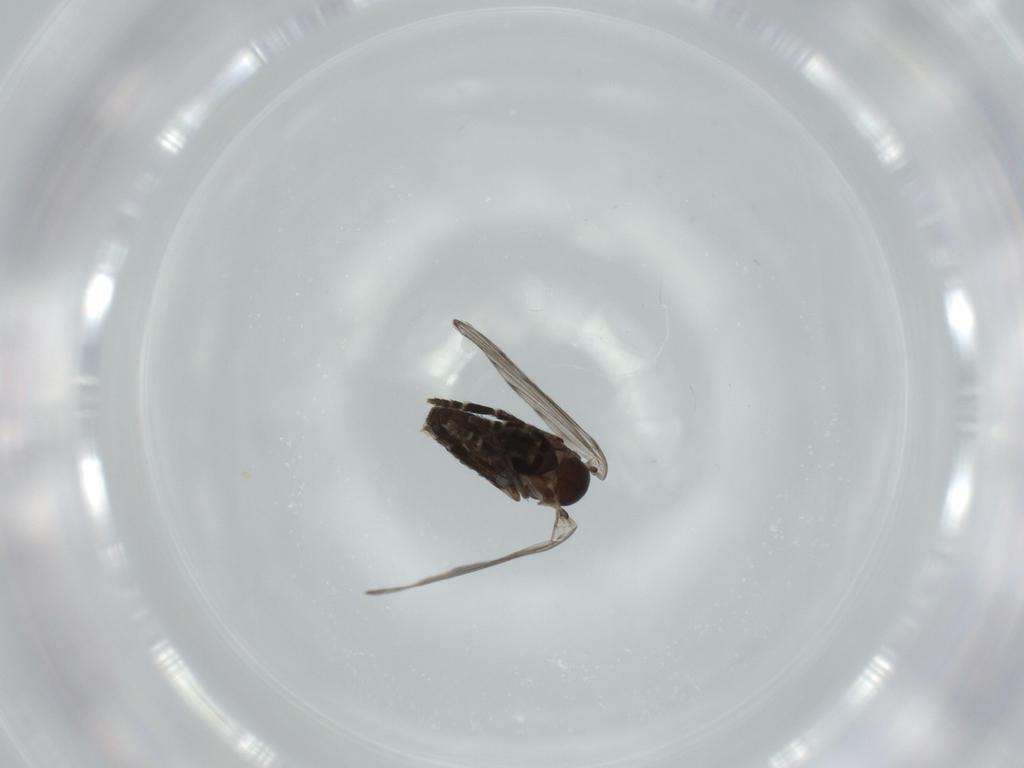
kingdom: Animalia
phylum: Arthropoda
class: Insecta
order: Diptera
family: Psychodidae
